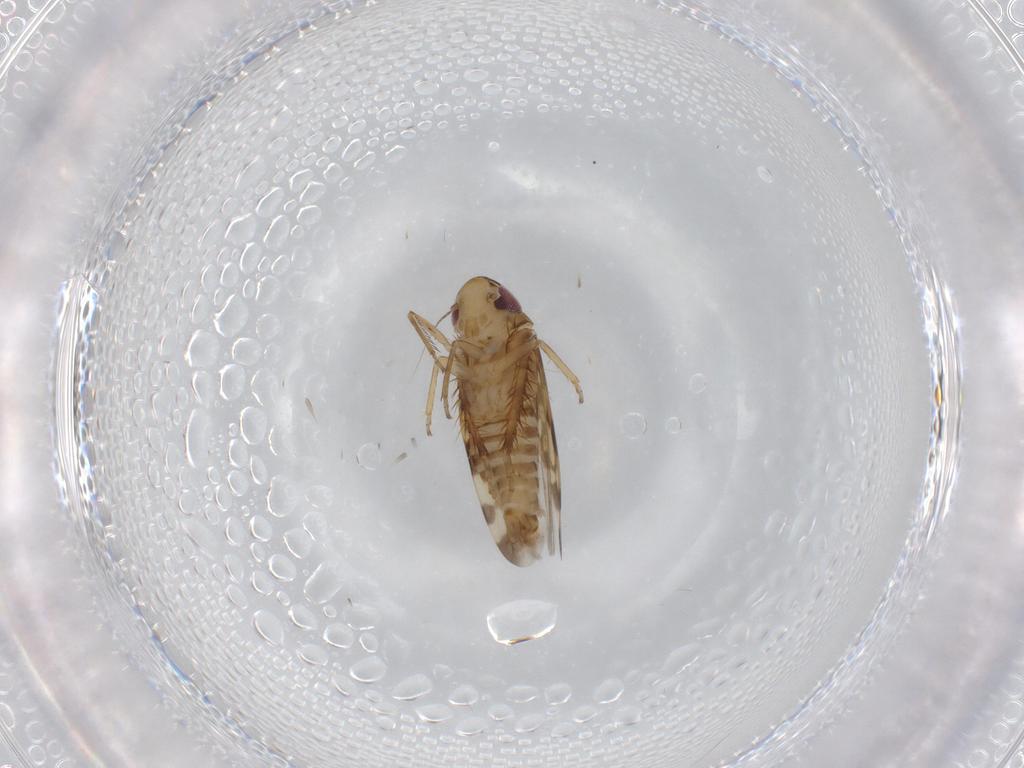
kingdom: Animalia
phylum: Arthropoda
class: Insecta
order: Hemiptera
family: Cicadellidae
